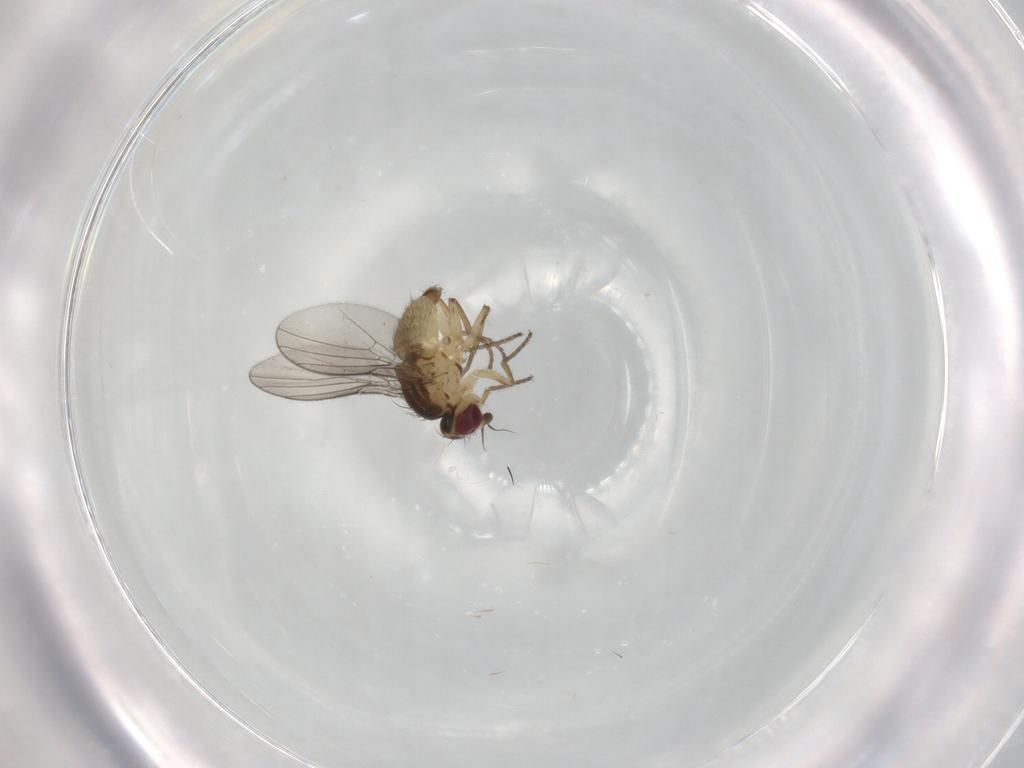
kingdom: Animalia
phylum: Arthropoda
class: Insecta
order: Diptera
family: Agromyzidae
